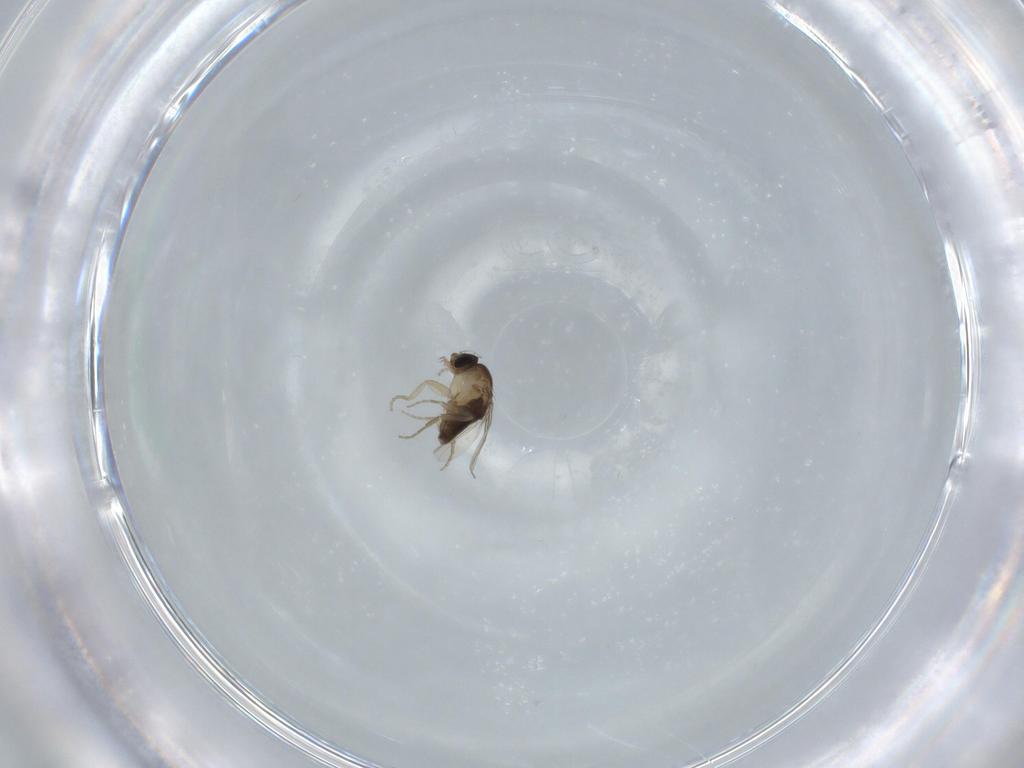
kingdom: Animalia
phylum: Arthropoda
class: Insecta
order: Diptera
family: Phoridae
